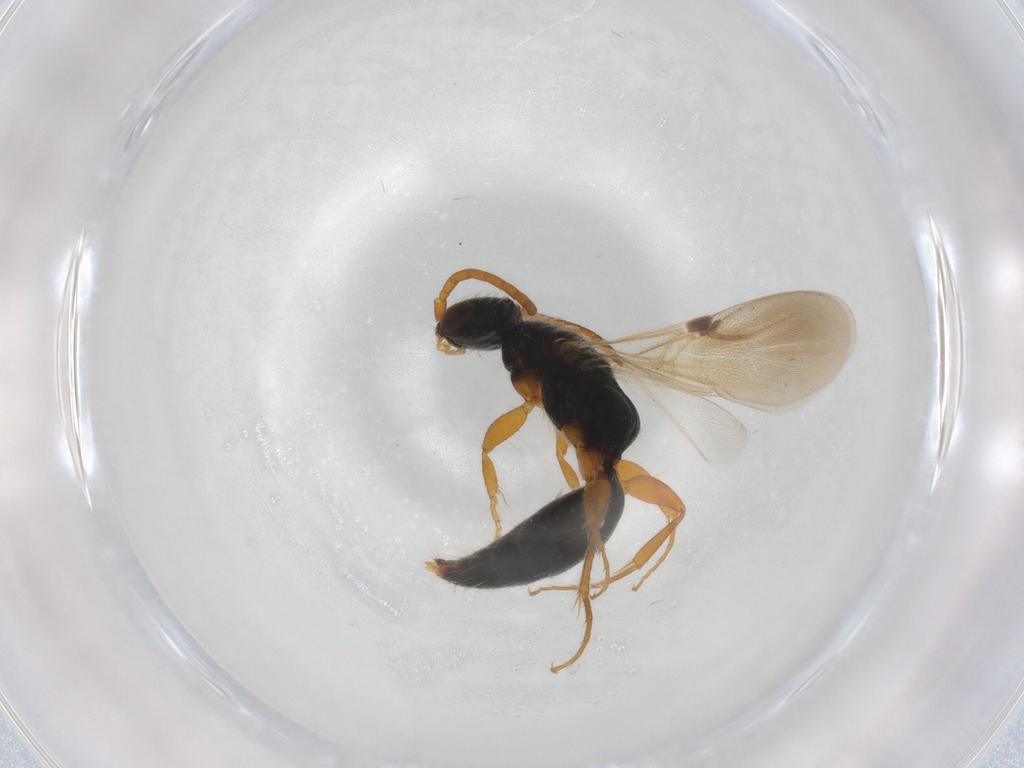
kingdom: Animalia
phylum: Arthropoda
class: Insecta
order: Hymenoptera
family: Bethylidae
